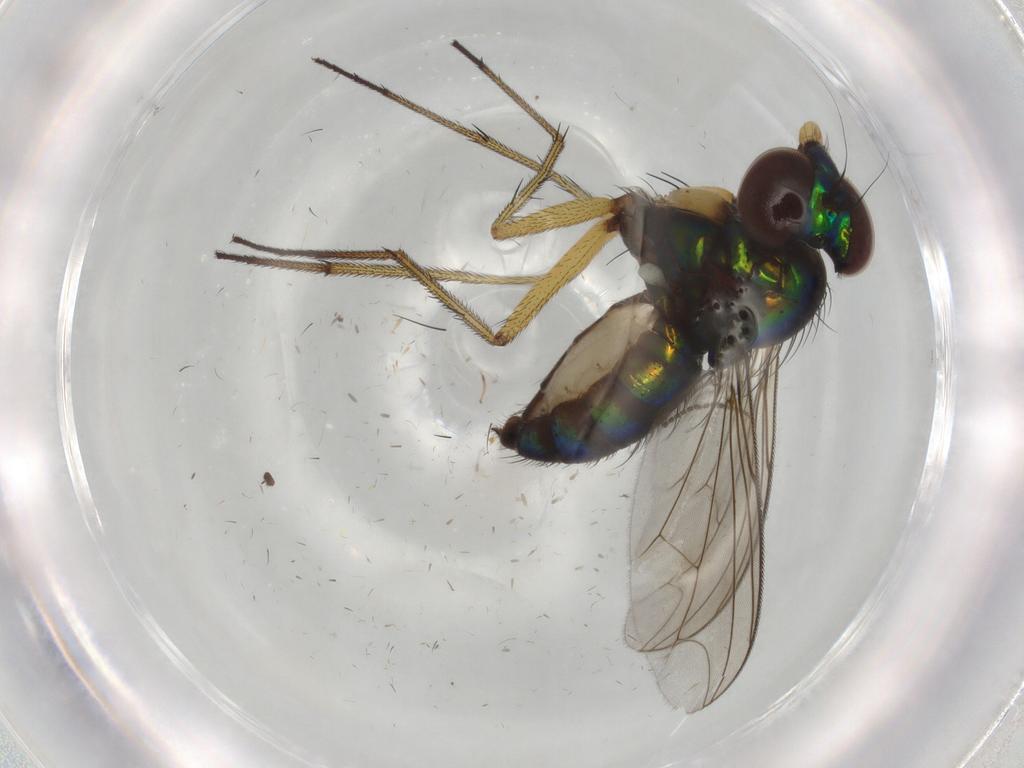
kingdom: Animalia
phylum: Arthropoda
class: Insecta
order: Diptera
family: Dolichopodidae
